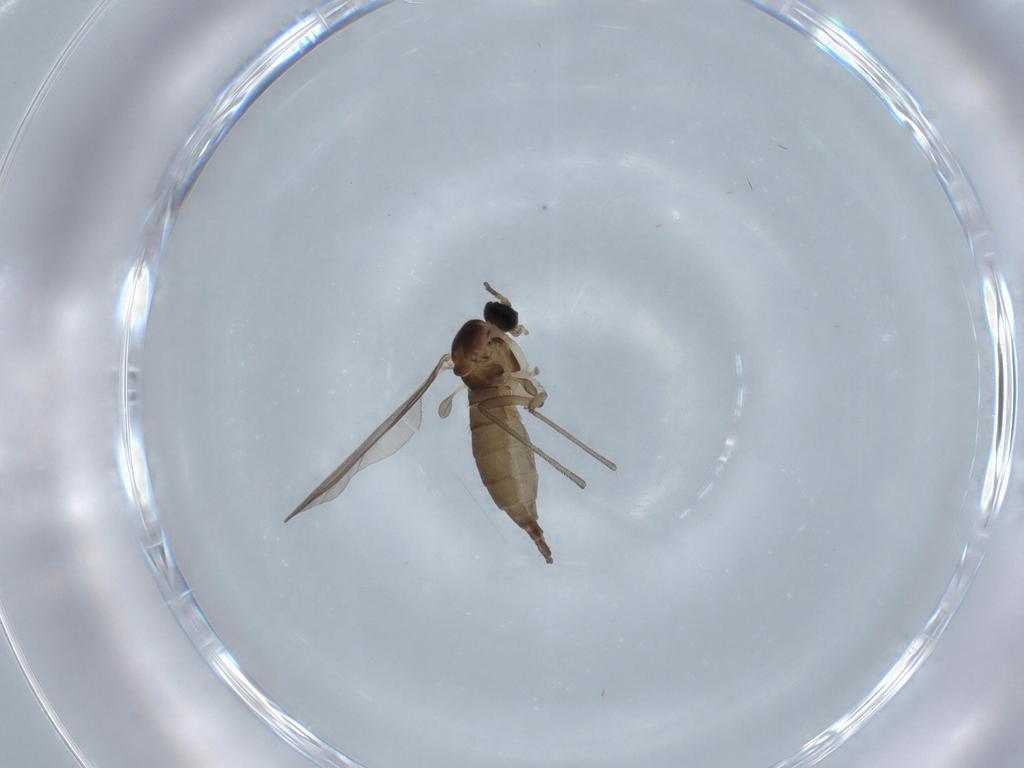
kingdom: Animalia
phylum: Arthropoda
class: Insecta
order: Diptera
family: Sciaridae
